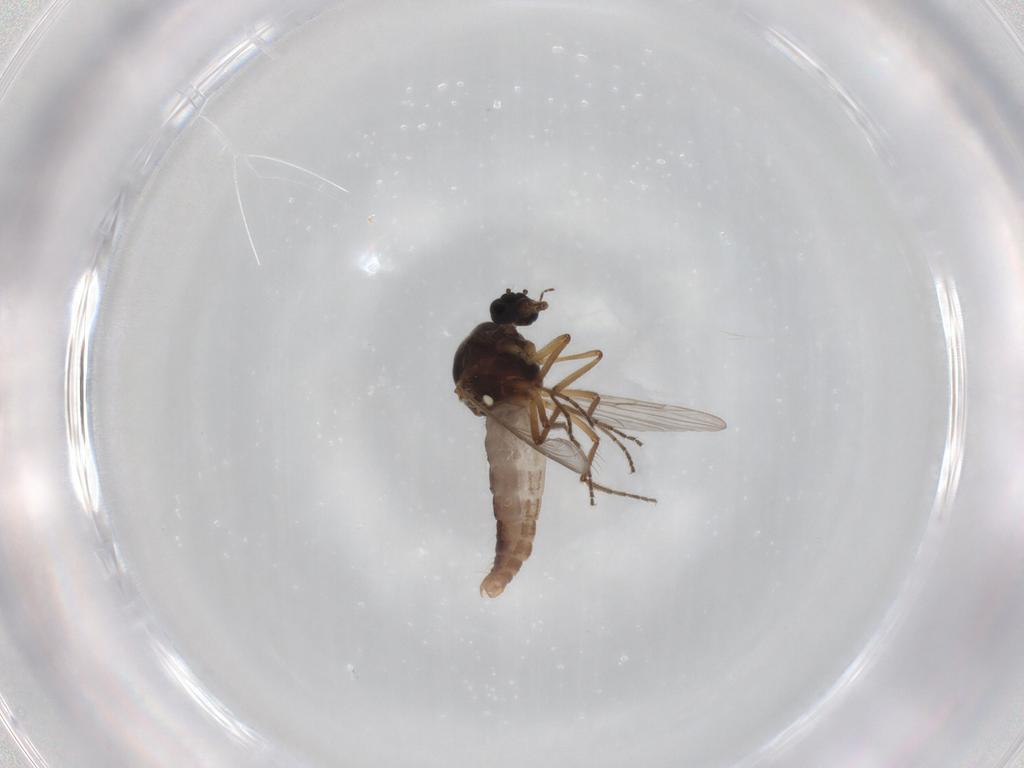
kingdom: Animalia
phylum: Arthropoda
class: Insecta
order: Diptera
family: Ceratopogonidae
